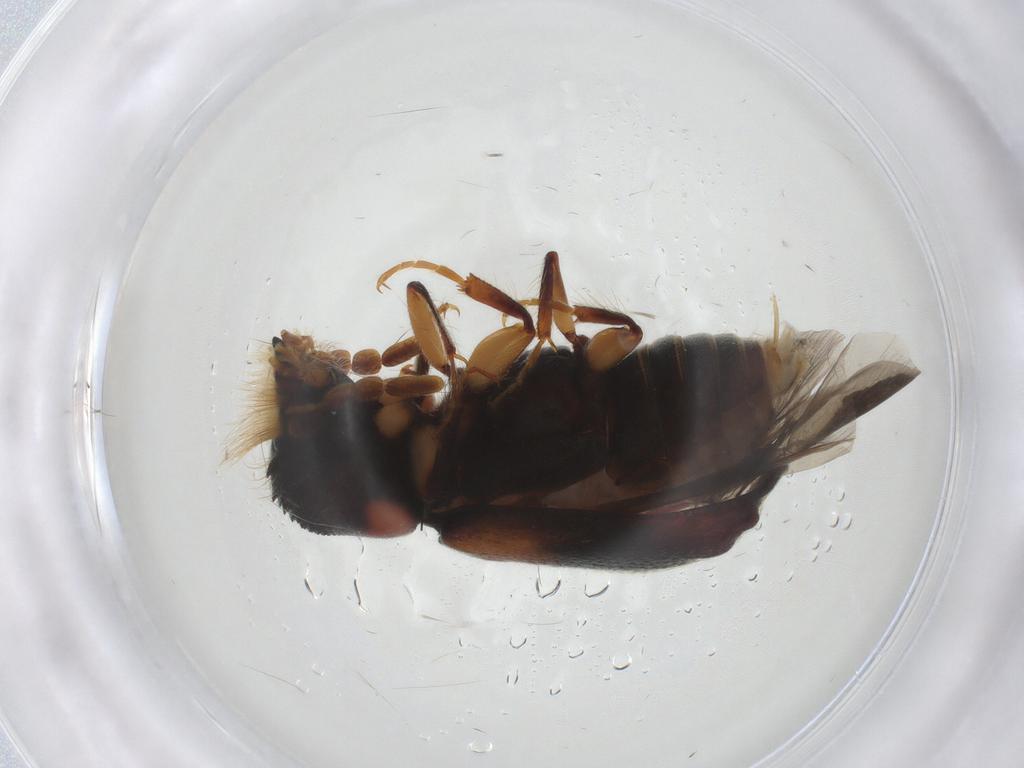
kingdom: Animalia
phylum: Arthropoda
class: Insecta
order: Coleoptera
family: Bostrichidae
